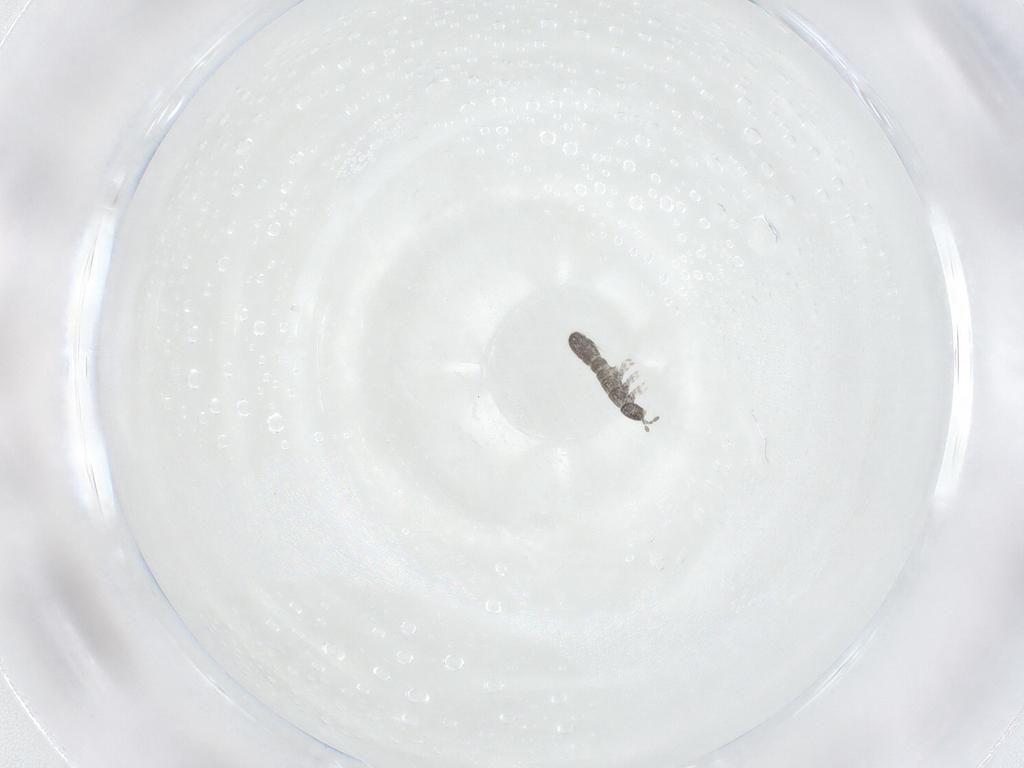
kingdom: Animalia
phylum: Arthropoda
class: Collembola
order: Entomobryomorpha
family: Isotomidae
